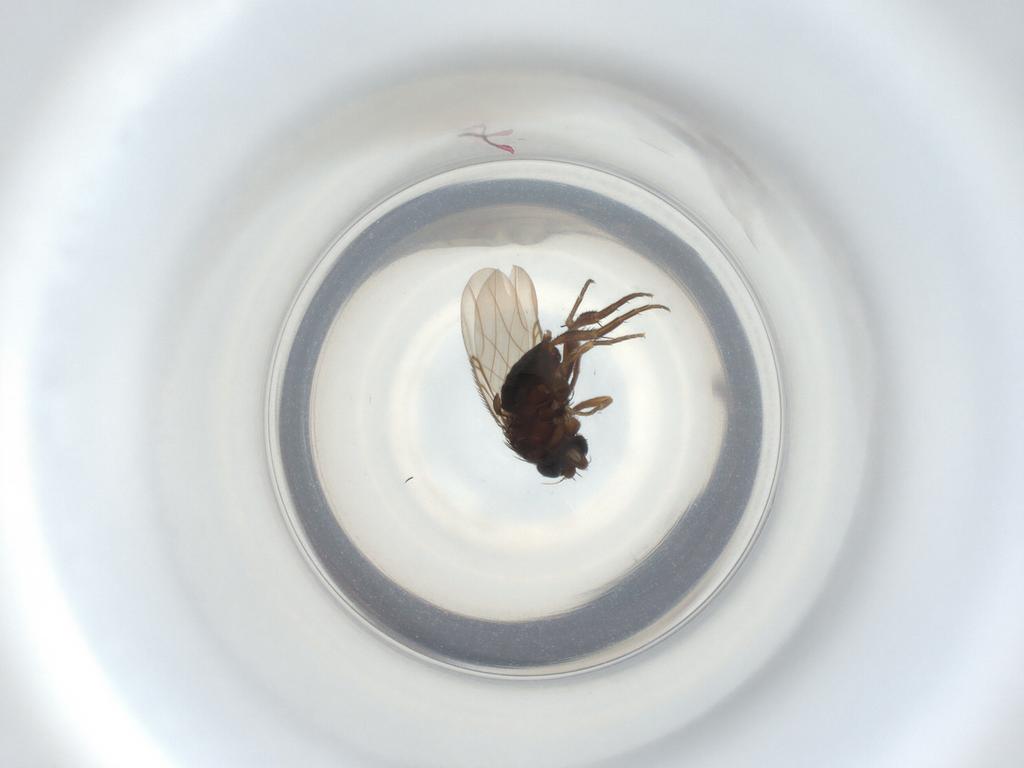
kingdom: Animalia
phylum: Arthropoda
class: Insecta
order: Diptera
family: Phoridae
